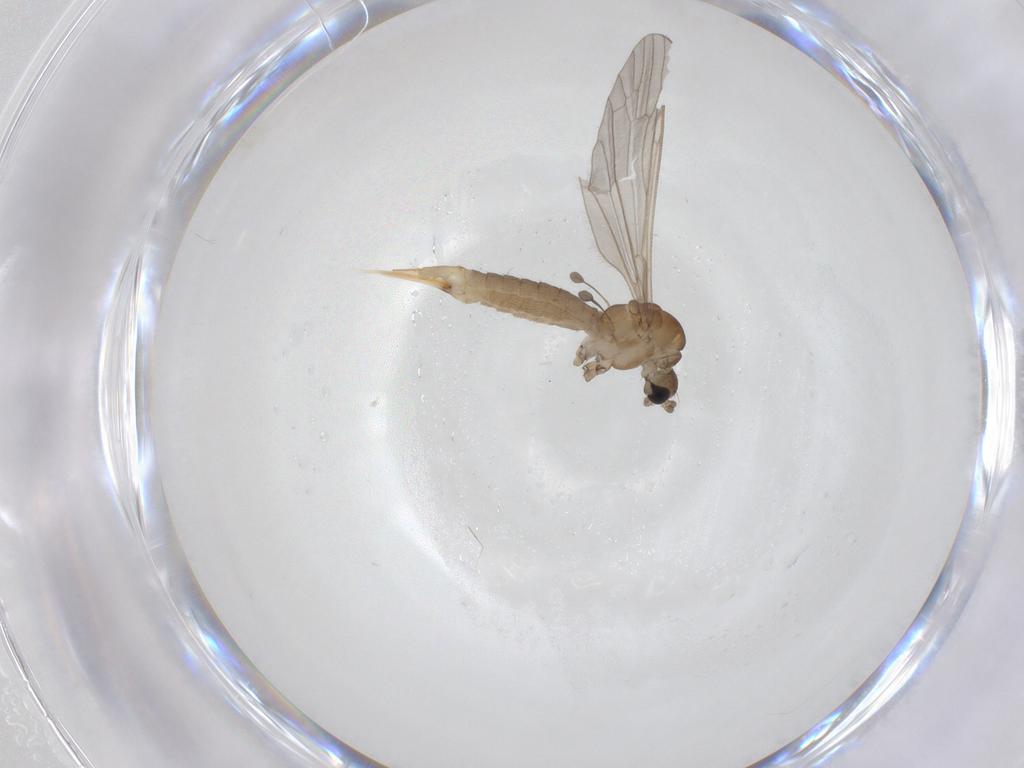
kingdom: Animalia
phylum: Arthropoda
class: Insecta
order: Diptera
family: Limoniidae
